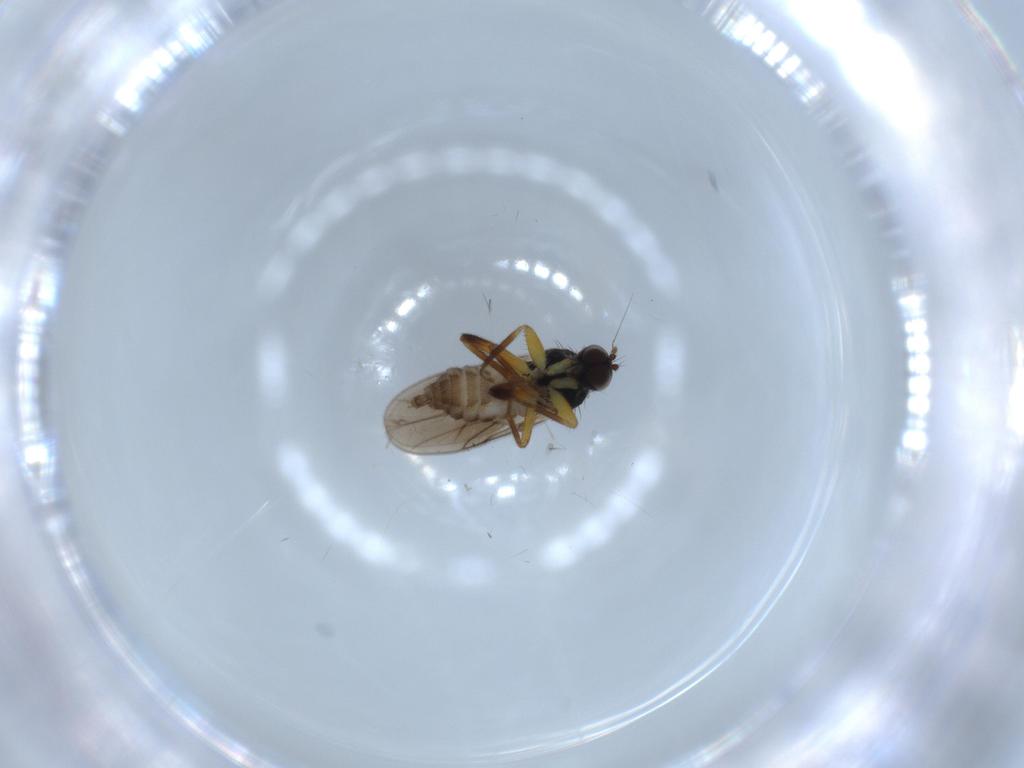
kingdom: Animalia
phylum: Arthropoda
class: Insecta
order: Diptera
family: Hybotidae
